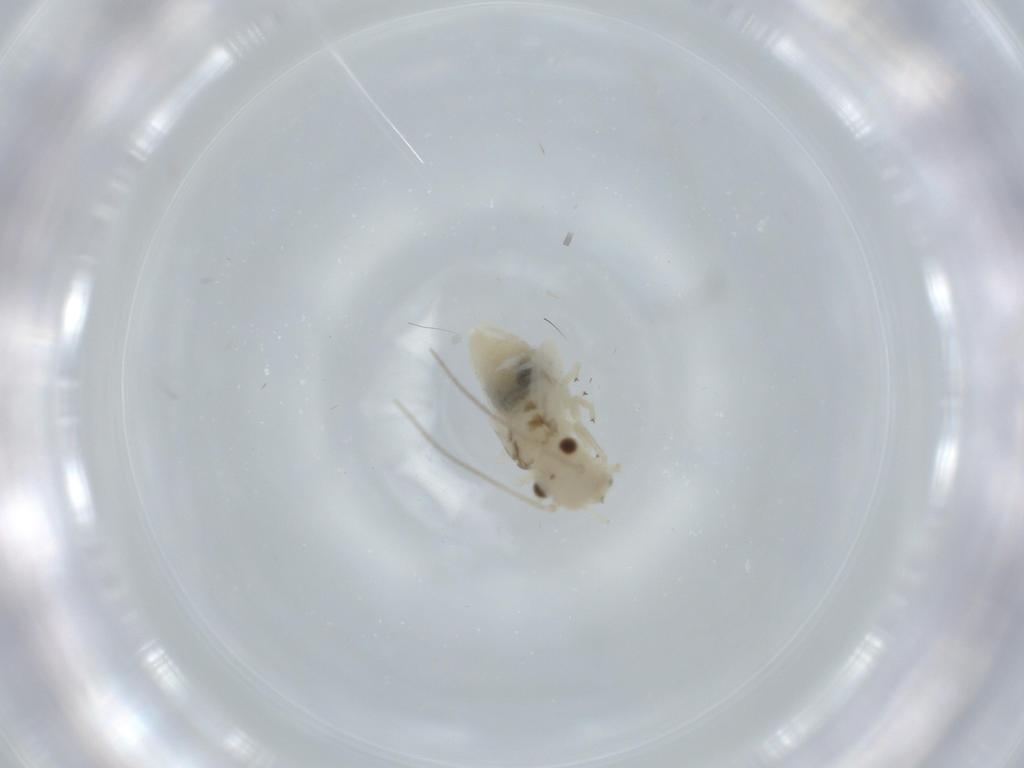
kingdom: Animalia
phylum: Arthropoda
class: Insecta
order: Psocodea
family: Caeciliusidae
